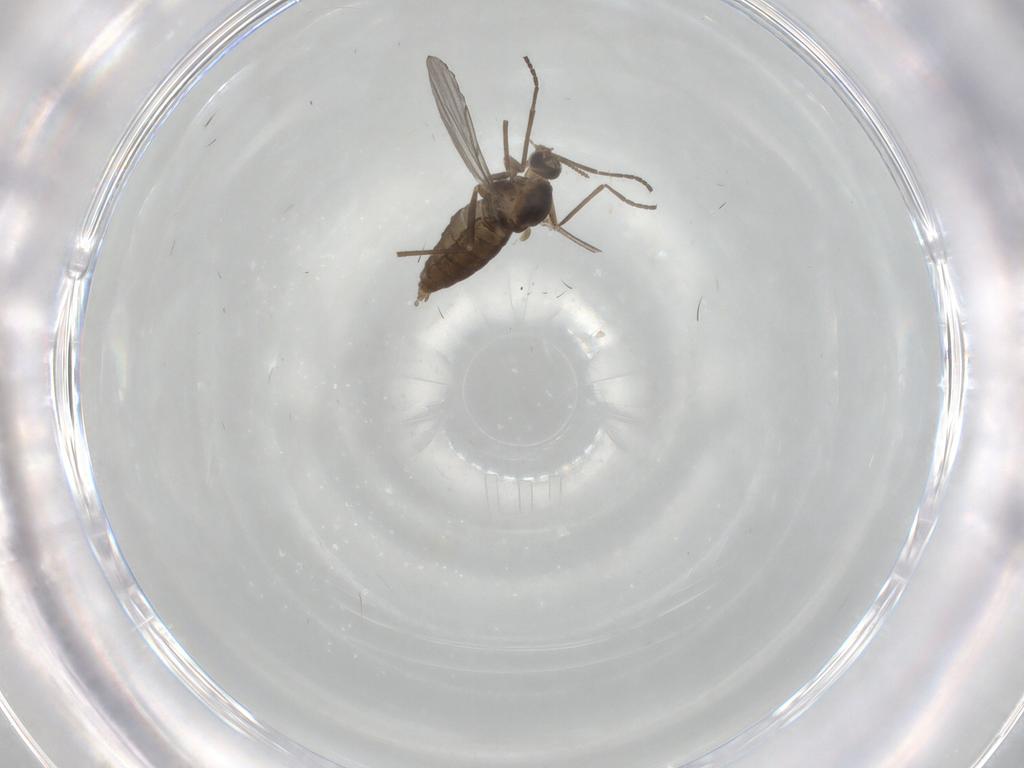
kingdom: Animalia
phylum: Arthropoda
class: Insecta
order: Diptera
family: Cecidomyiidae
